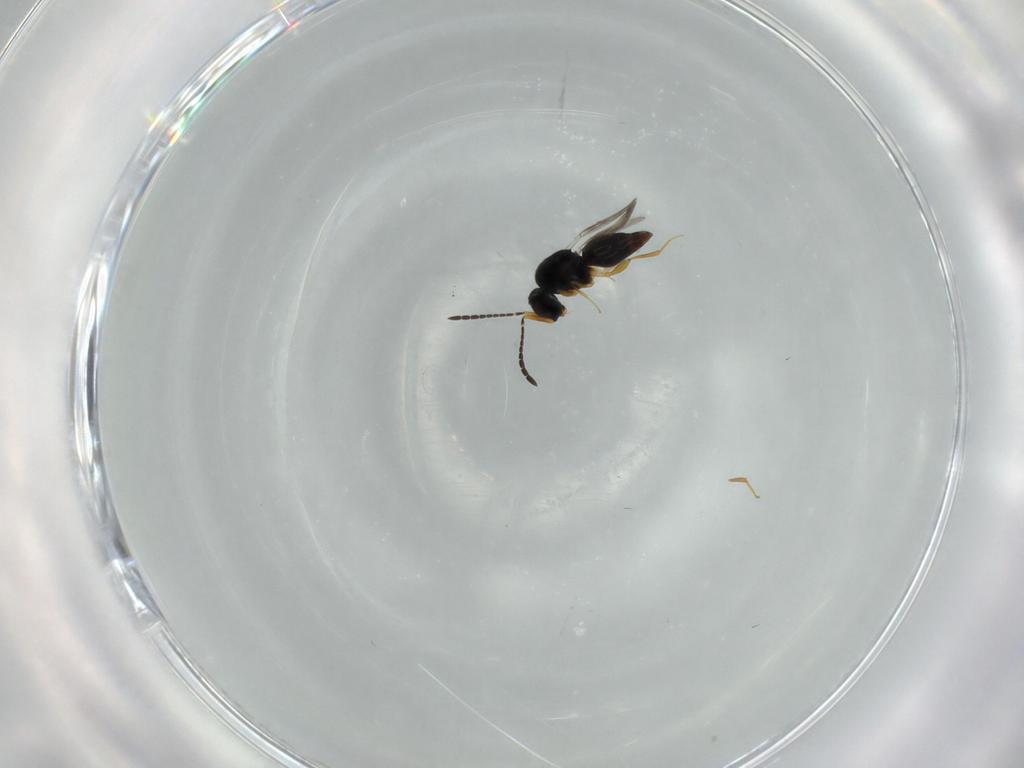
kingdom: Animalia
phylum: Arthropoda
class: Insecta
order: Hymenoptera
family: Ceraphronidae
